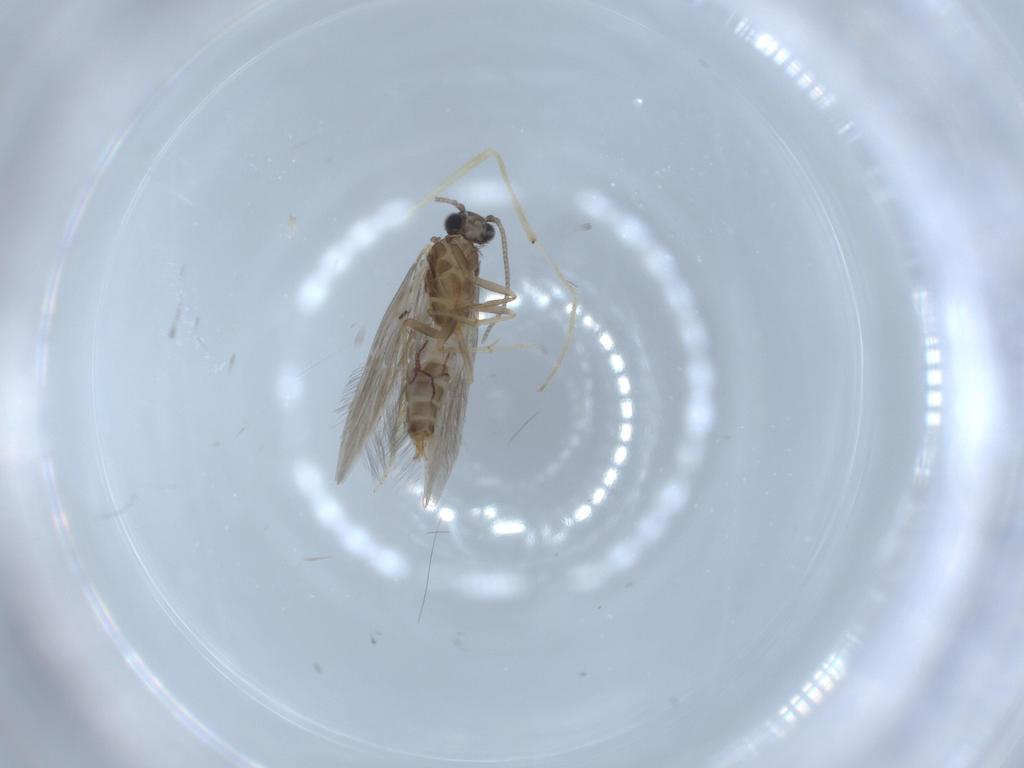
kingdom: Animalia
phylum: Arthropoda
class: Insecta
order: Trichoptera
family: Hydroptilidae
